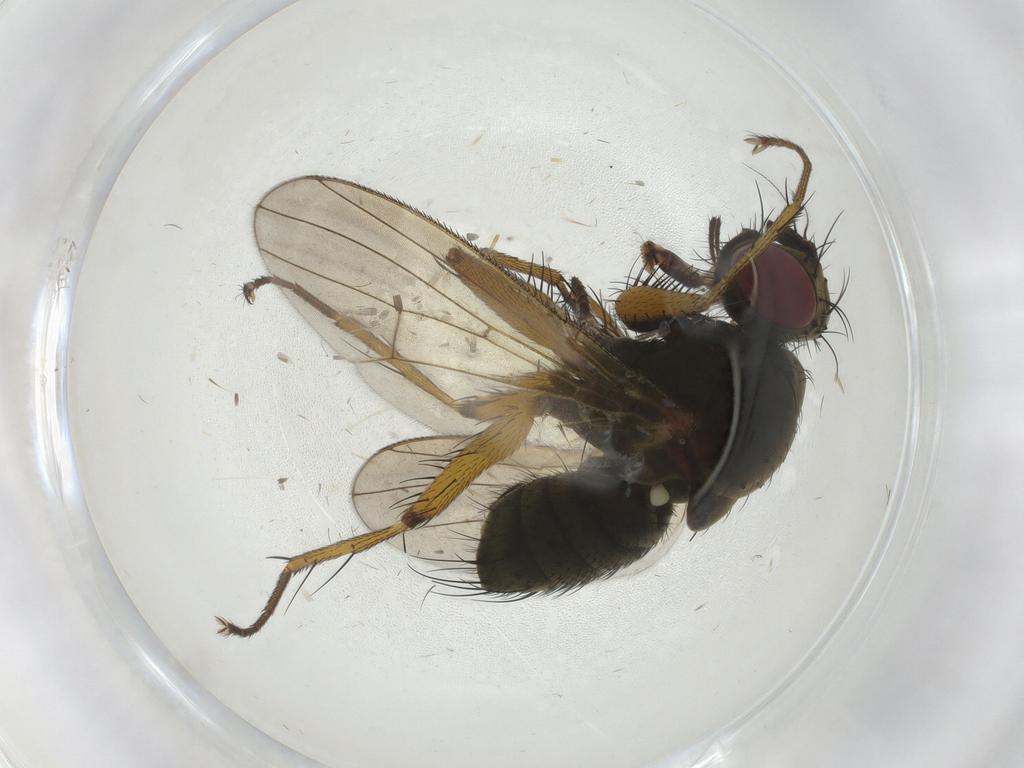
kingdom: Animalia
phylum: Arthropoda
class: Insecta
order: Diptera
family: Muscidae
